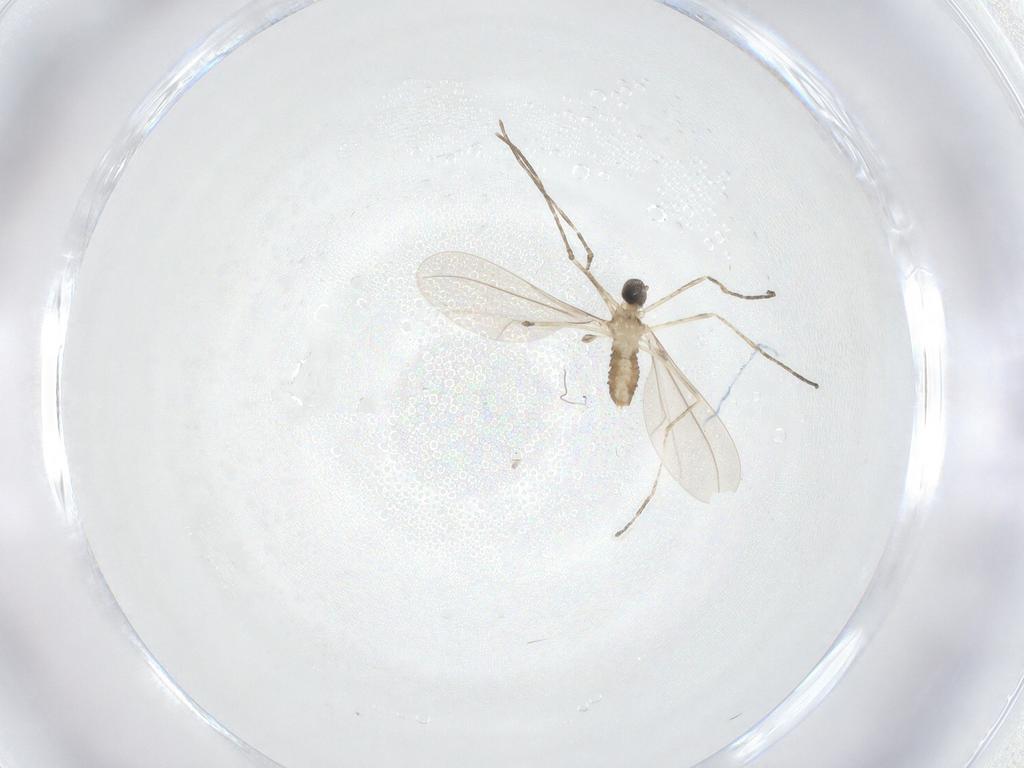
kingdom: Animalia
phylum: Arthropoda
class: Insecta
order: Diptera
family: Cecidomyiidae
